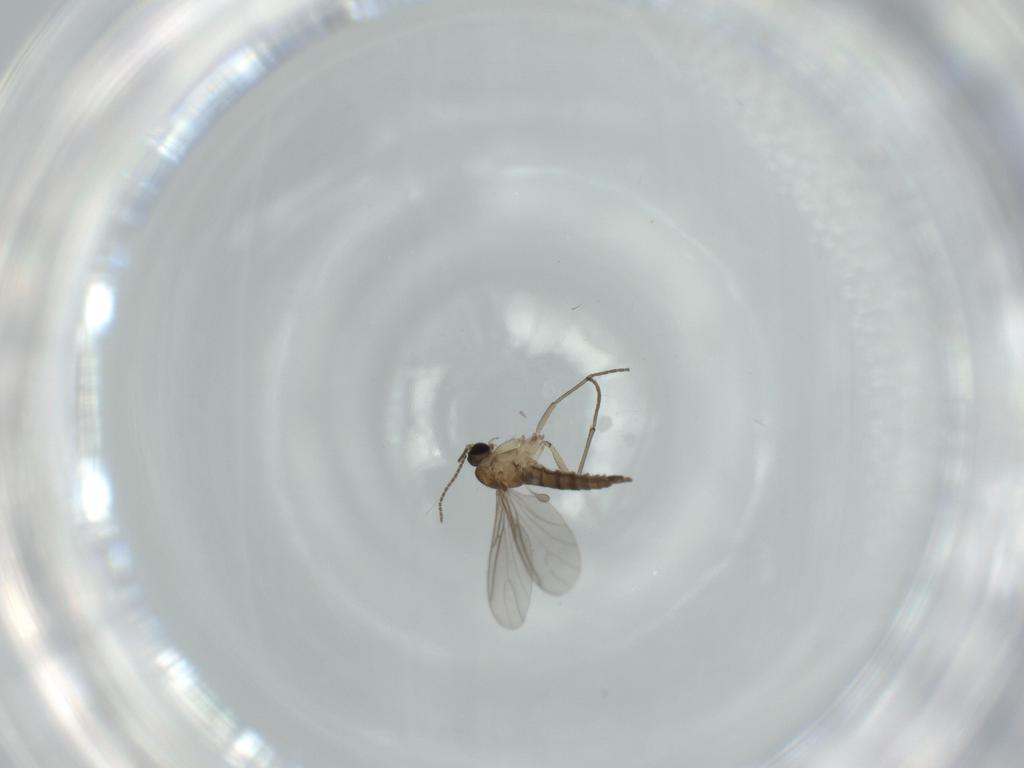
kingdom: Animalia
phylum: Arthropoda
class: Insecta
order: Diptera
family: Sciaridae
